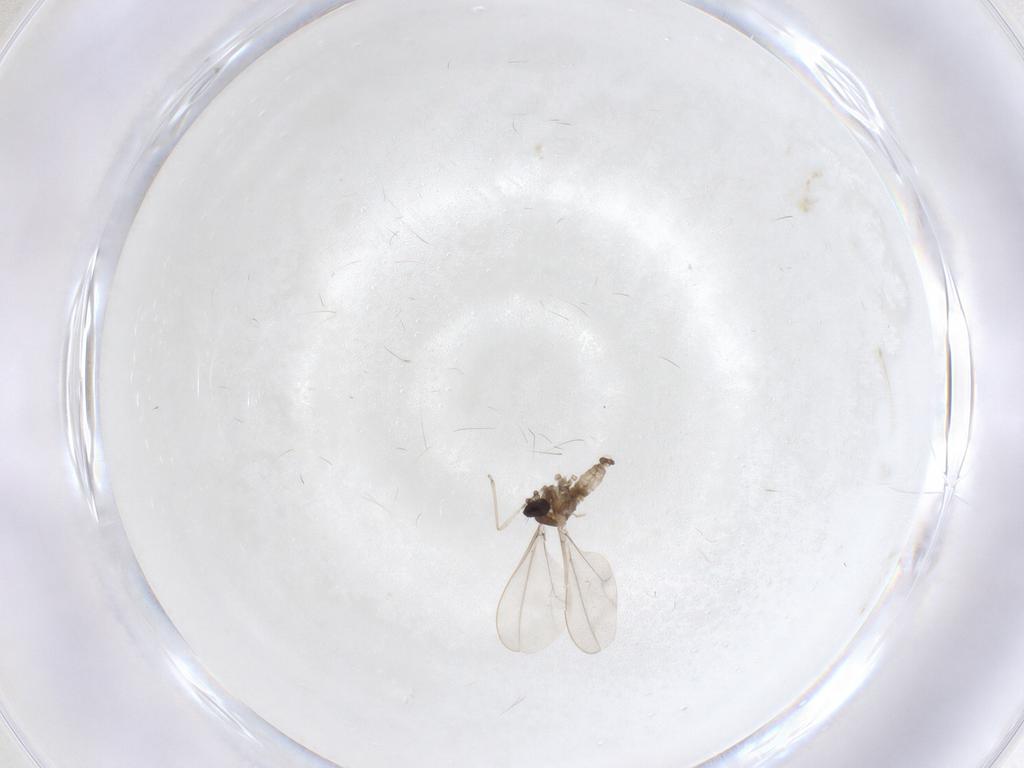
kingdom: Animalia
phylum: Arthropoda
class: Insecta
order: Diptera
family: Cecidomyiidae
